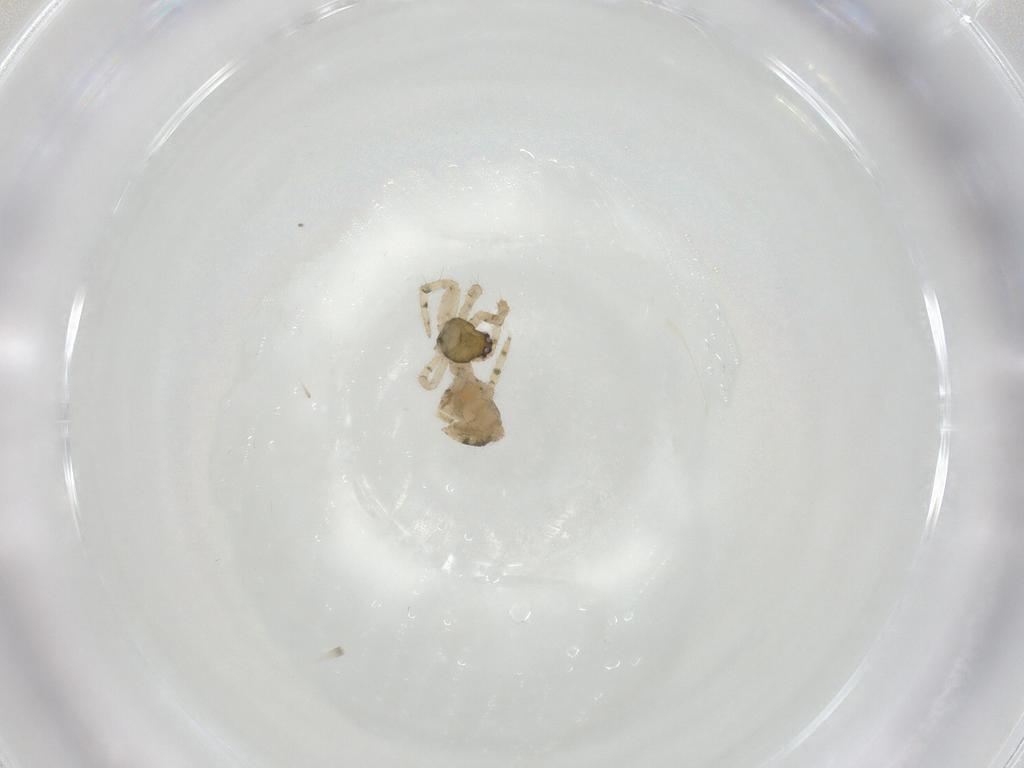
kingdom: Animalia
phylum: Arthropoda
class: Arachnida
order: Araneae
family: Theridiidae
